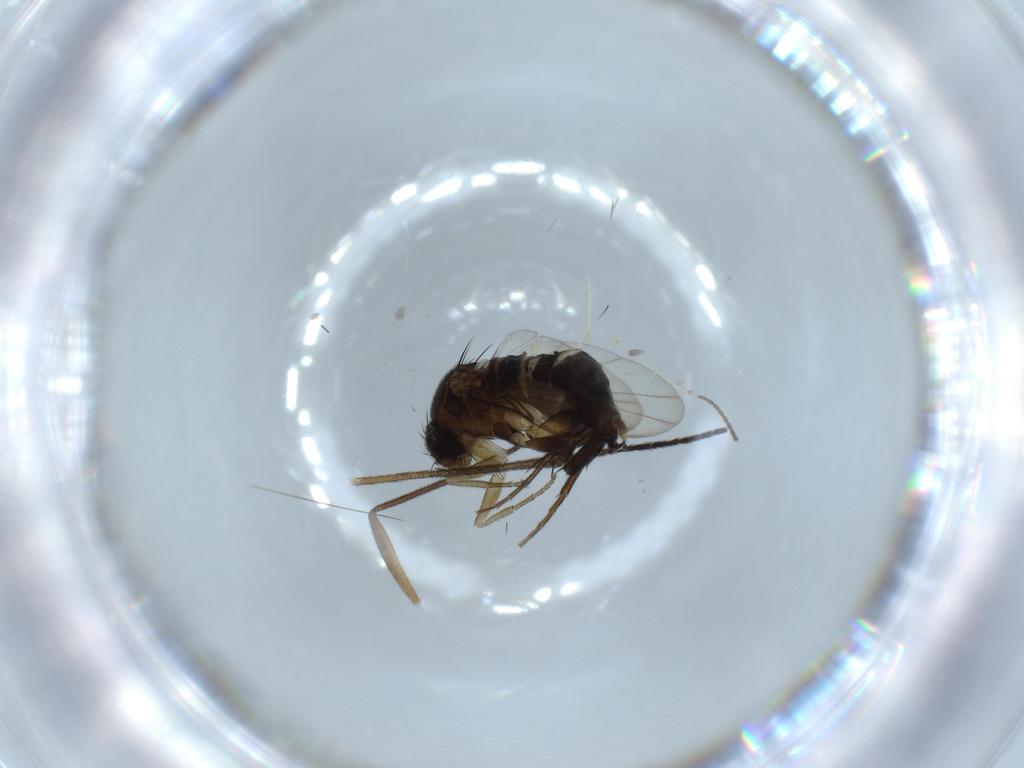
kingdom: Animalia
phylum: Arthropoda
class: Insecta
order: Diptera
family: Phoridae
